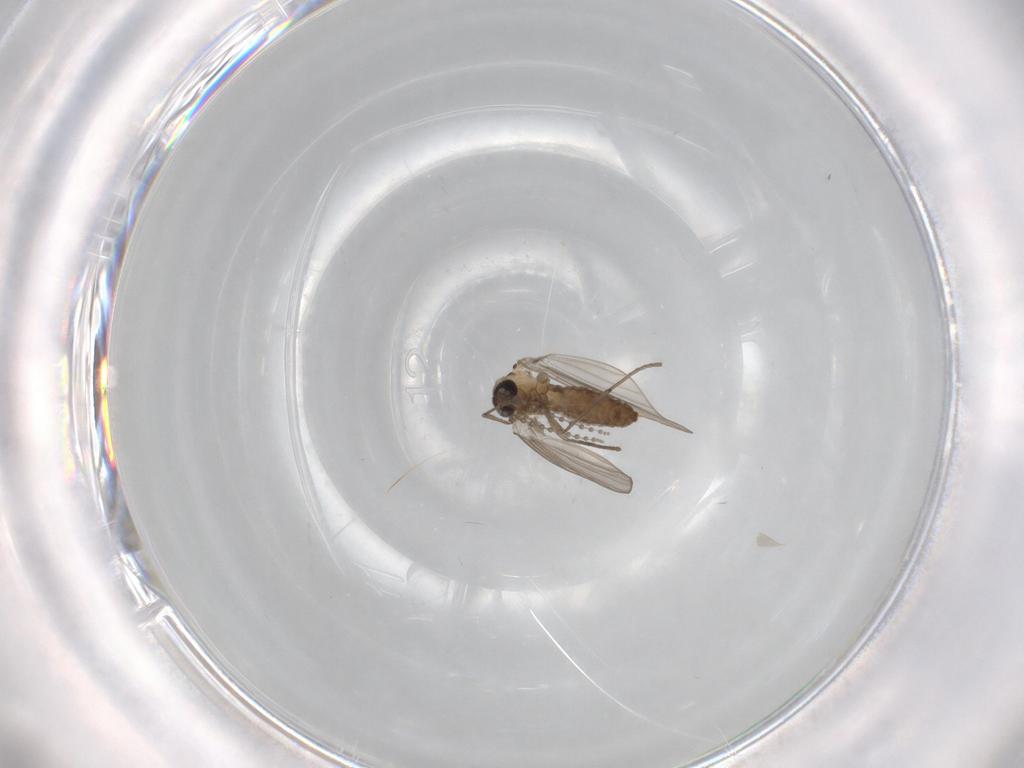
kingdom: Animalia
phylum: Arthropoda
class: Insecta
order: Diptera
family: Psychodidae
